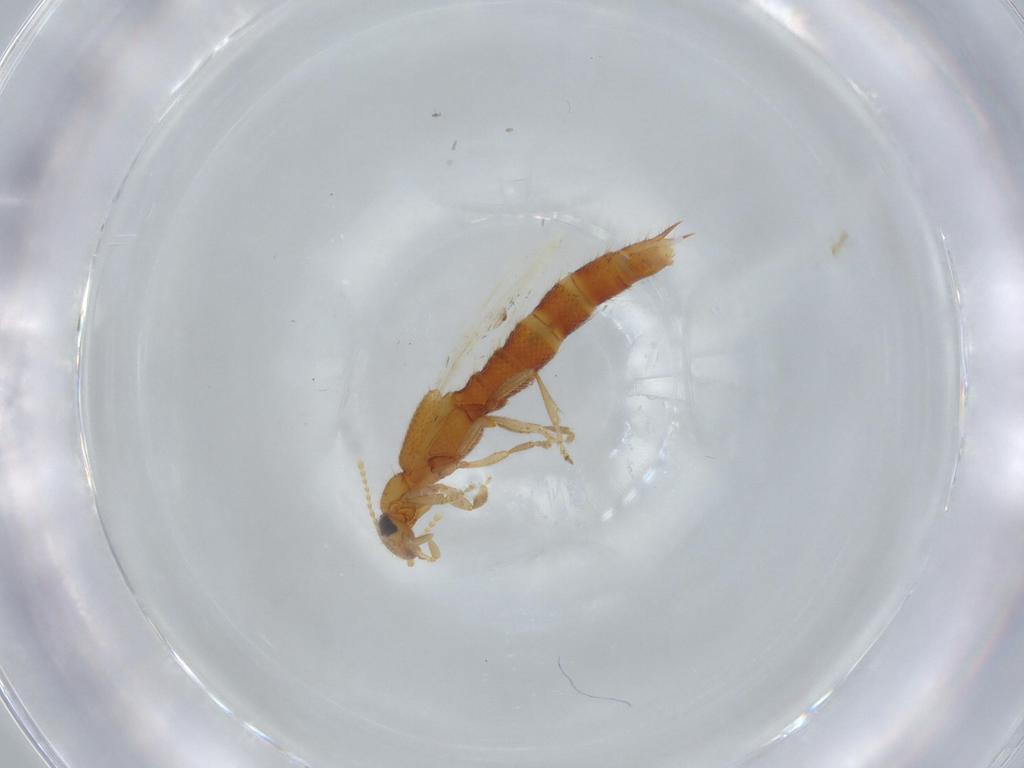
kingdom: Animalia
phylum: Arthropoda
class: Insecta
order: Coleoptera
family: Staphylinidae
